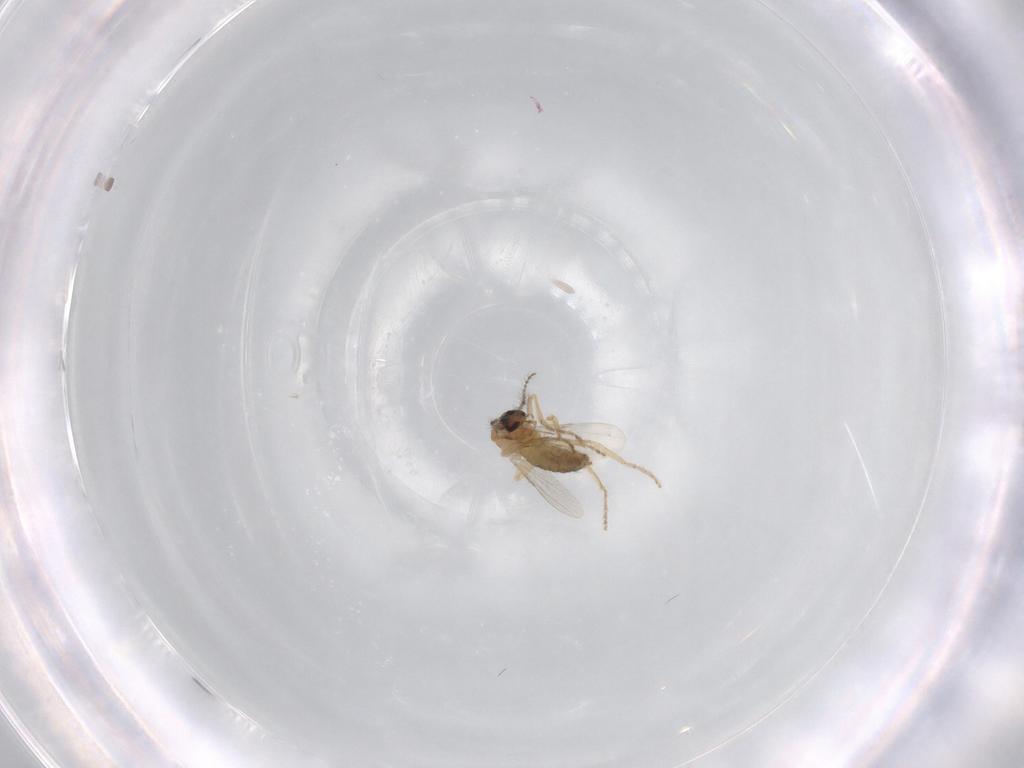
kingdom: Animalia
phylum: Arthropoda
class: Insecta
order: Diptera
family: Ceratopogonidae
